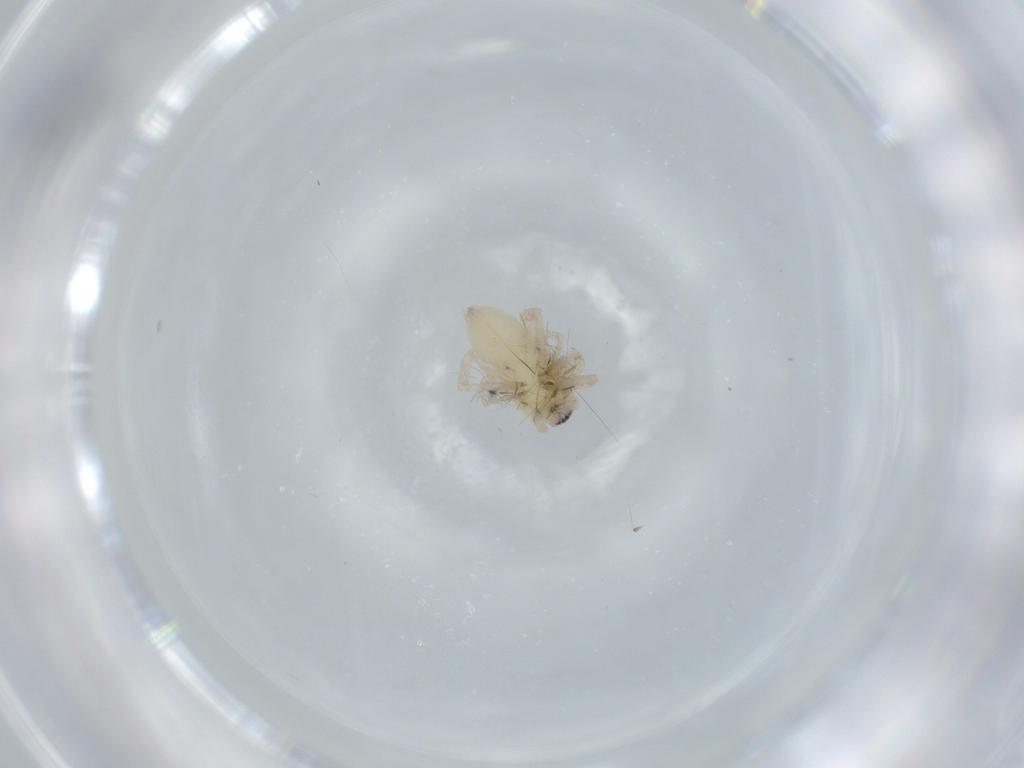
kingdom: Animalia
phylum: Arthropoda
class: Arachnida
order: Araneae
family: Anyphaenidae
